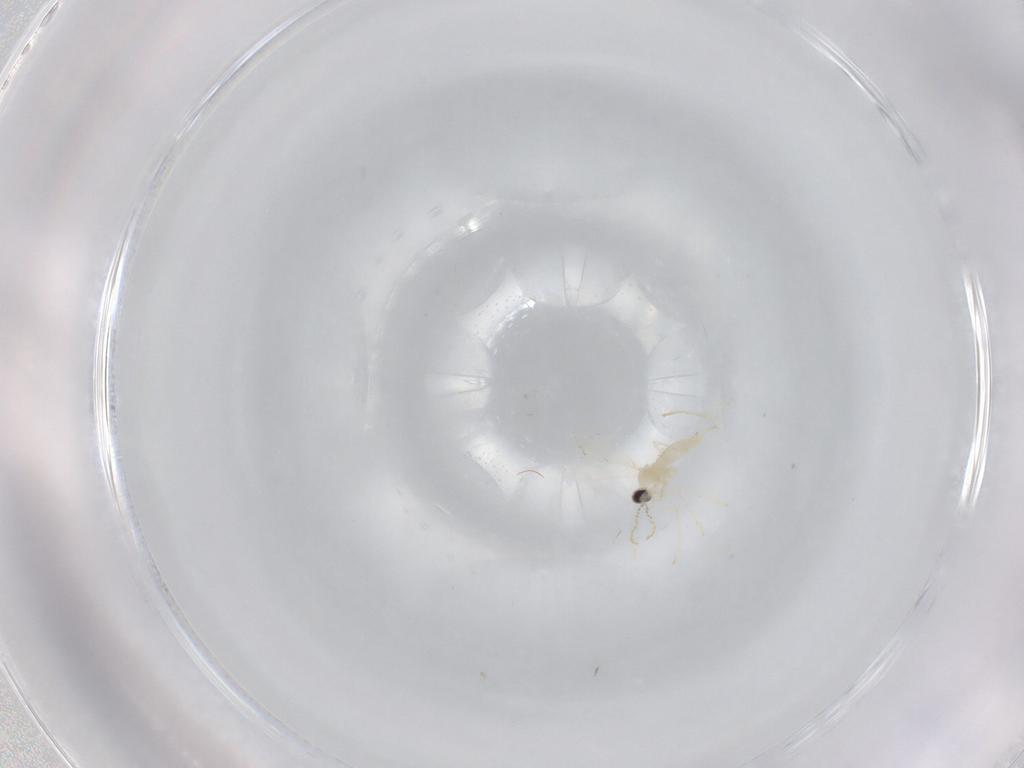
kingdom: Animalia
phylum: Arthropoda
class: Insecta
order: Diptera
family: Cecidomyiidae
